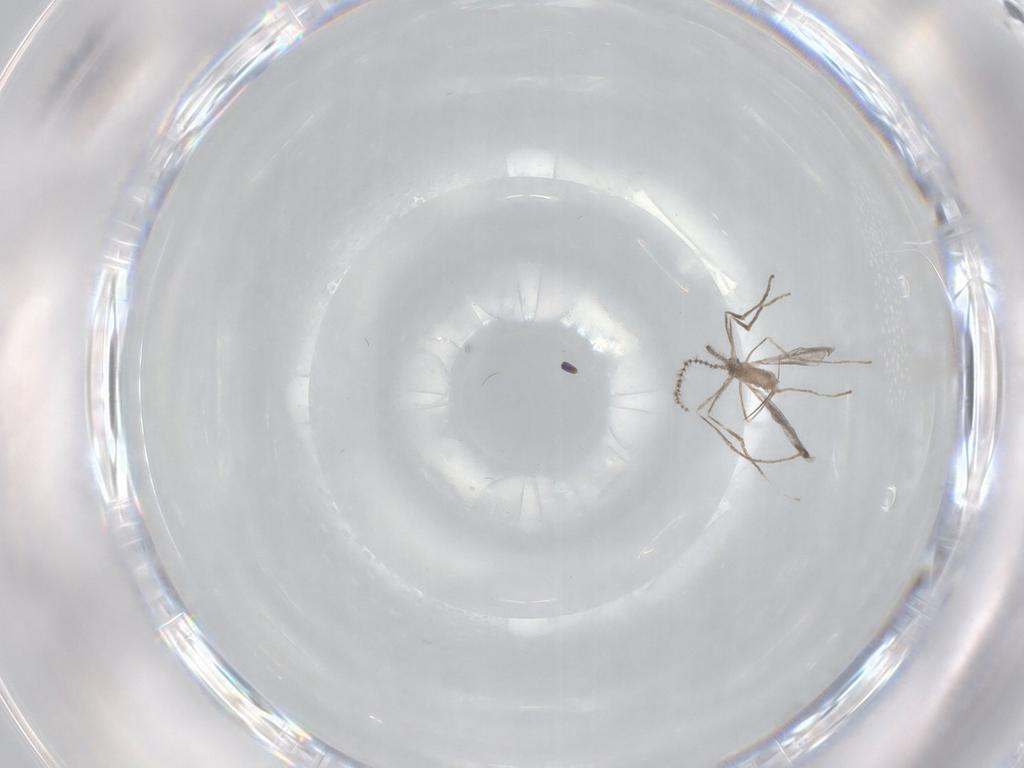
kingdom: Animalia
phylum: Arthropoda
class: Insecta
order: Diptera
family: Cecidomyiidae
